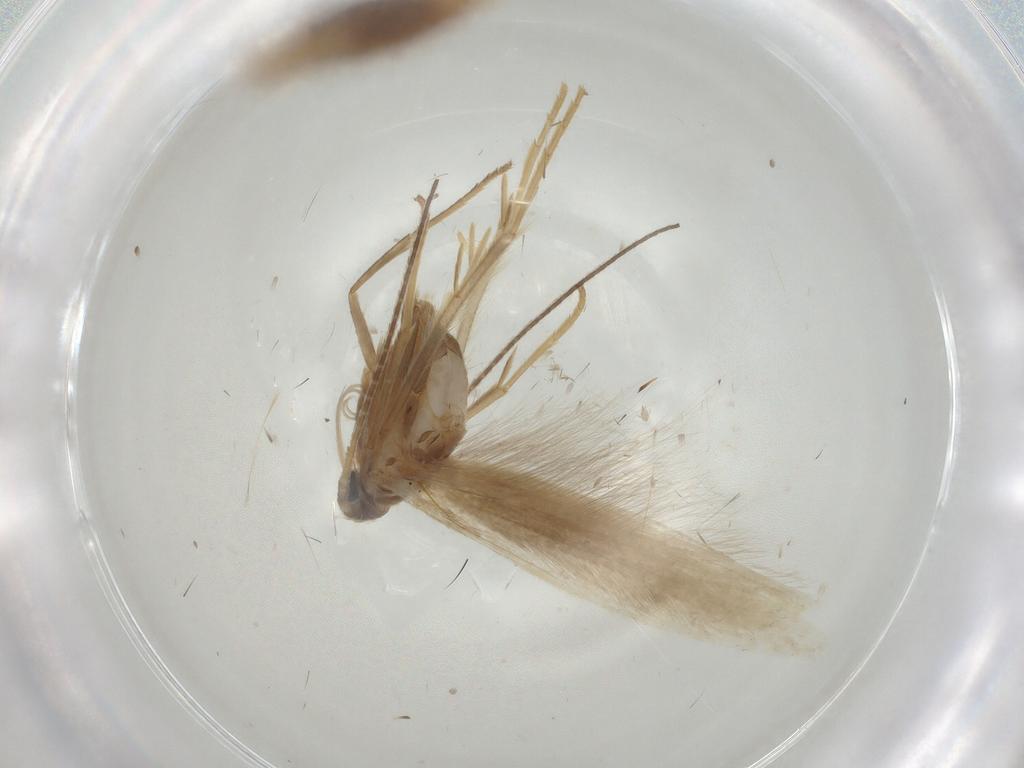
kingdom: Animalia
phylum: Arthropoda
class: Insecta
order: Lepidoptera
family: Coleophoridae
